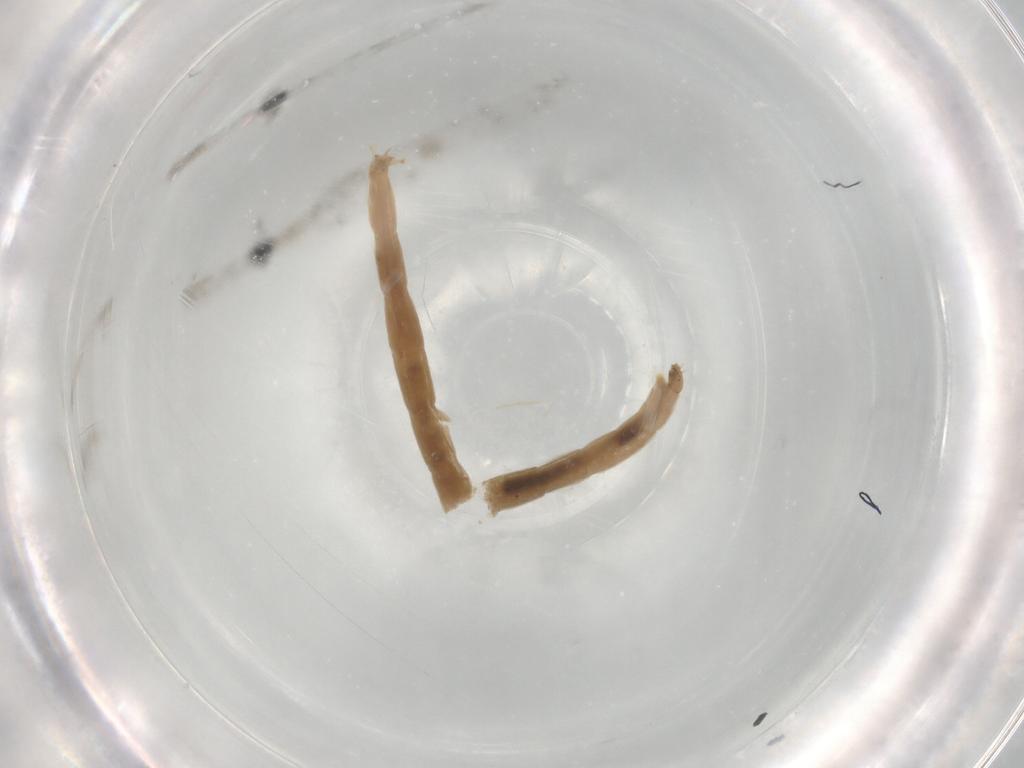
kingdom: Animalia
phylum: Arthropoda
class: Insecta
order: Diptera
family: Chironomidae
